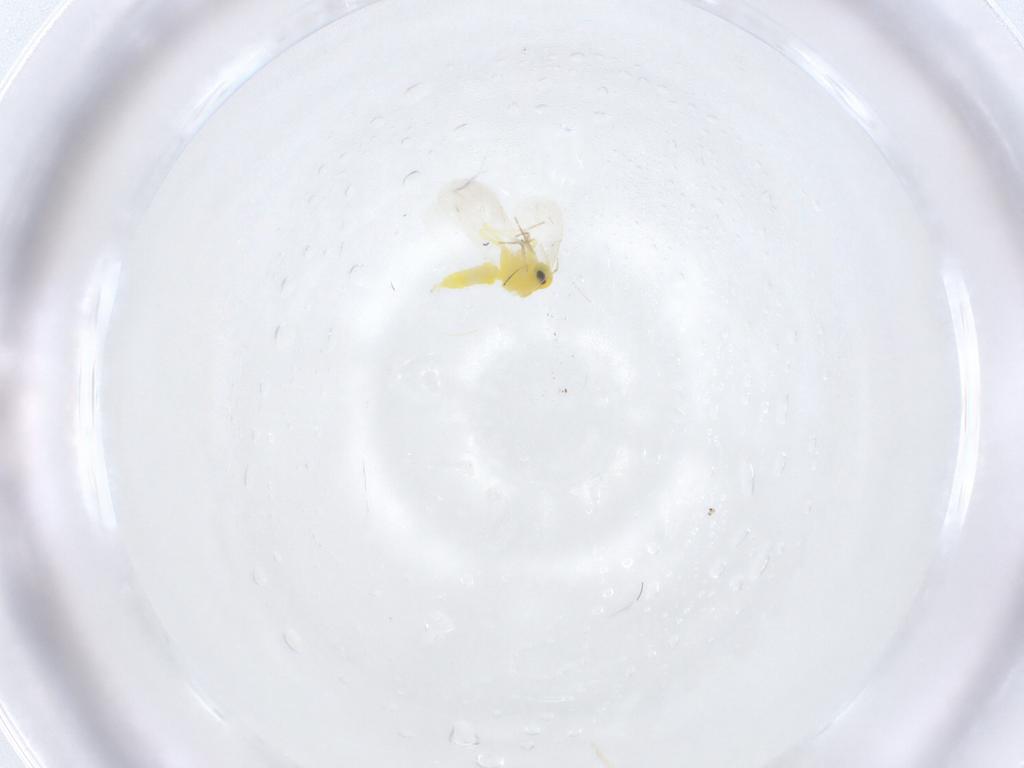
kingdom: Animalia
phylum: Arthropoda
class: Insecta
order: Hemiptera
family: Aleyrodidae
